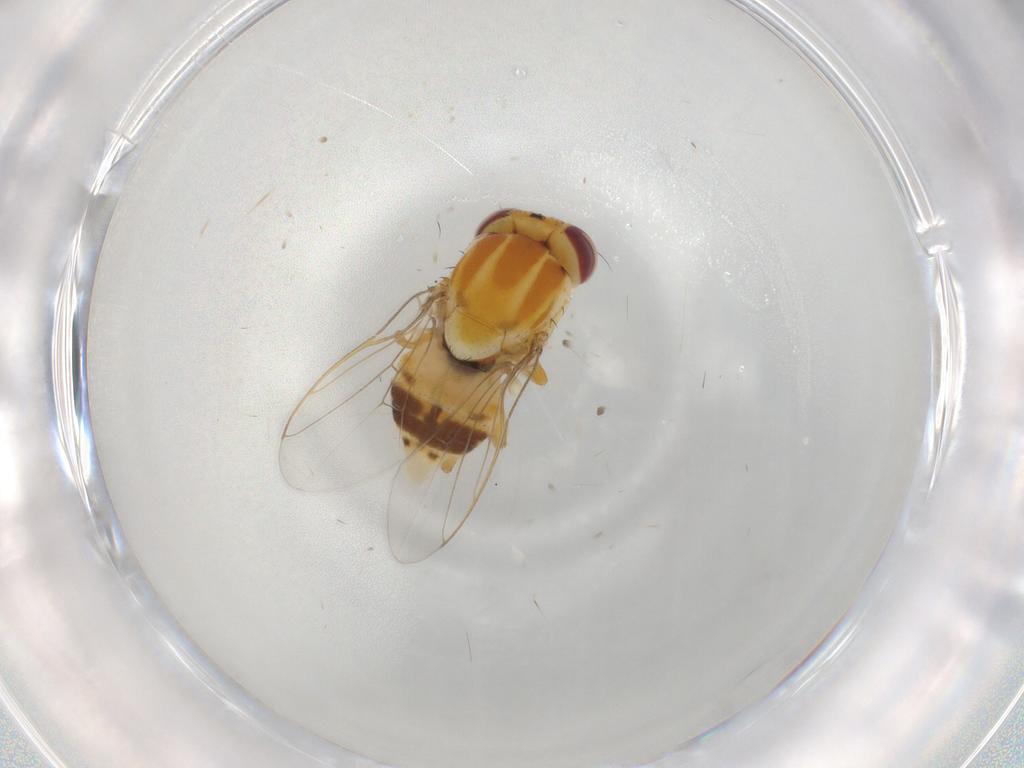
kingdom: Animalia
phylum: Arthropoda
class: Insecta
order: Diptera
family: Chloropidae
